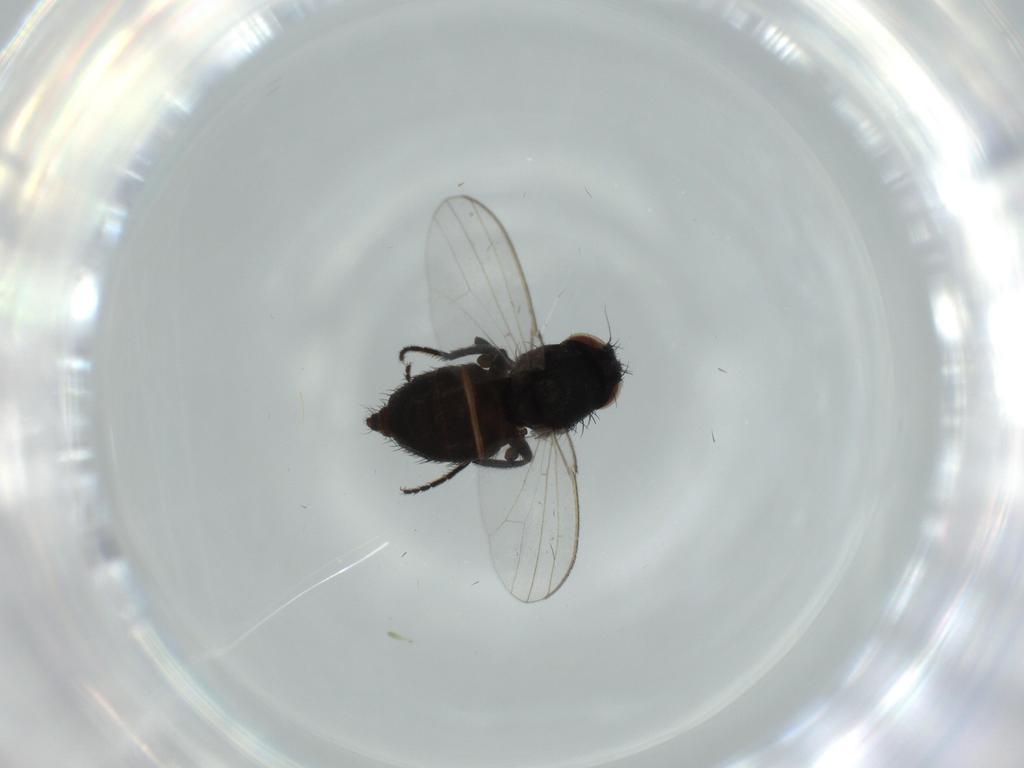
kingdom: Animalia
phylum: Arthropoda
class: Insecta
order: Diptera
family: Milichiidae
